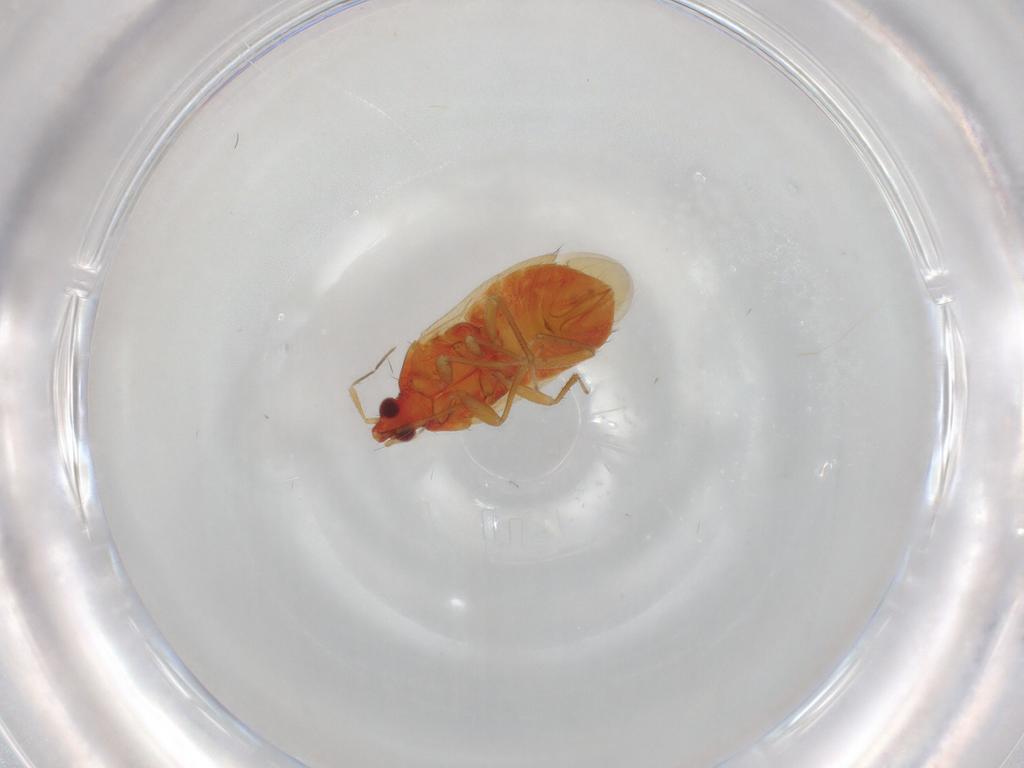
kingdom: Animalia
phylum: Arthropoda
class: Insecta
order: Hemiptera
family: Anthocoridae
